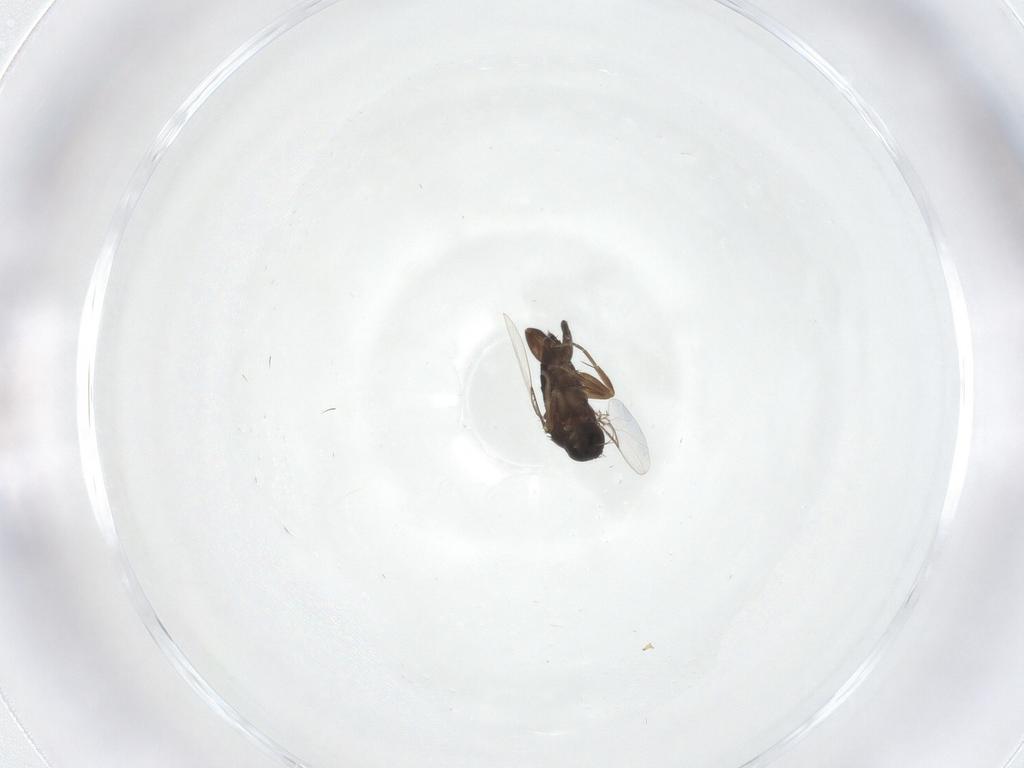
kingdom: Animalia
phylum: Arthropoda
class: Insecta
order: Diptera
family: Phoridae
